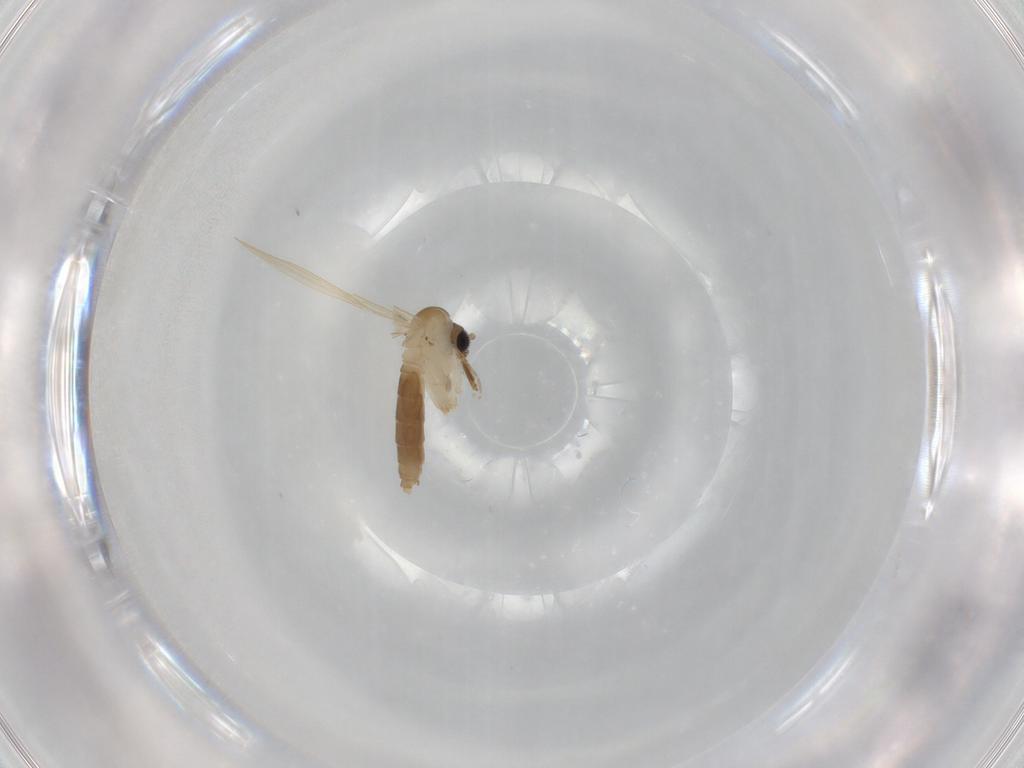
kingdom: Animalia
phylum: Arthropoda
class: Insecta
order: Diptera
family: Psychodidae
